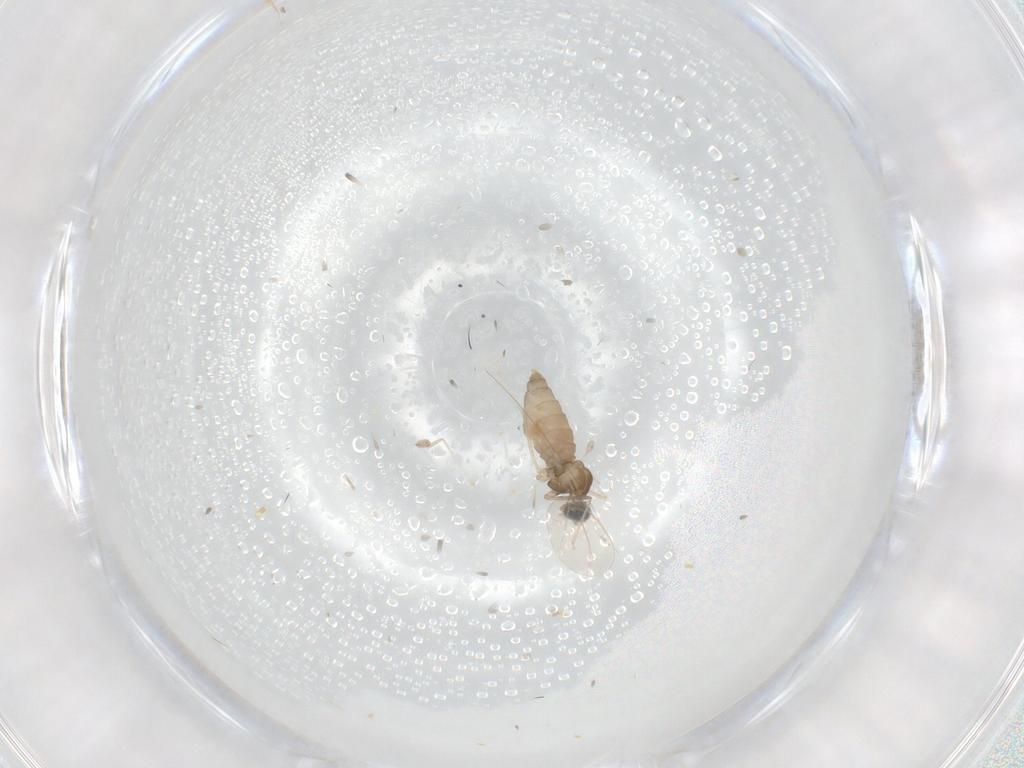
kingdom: Animalia
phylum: Arthropoda
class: Insecta
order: Diptera
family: Cecidomyiidae
